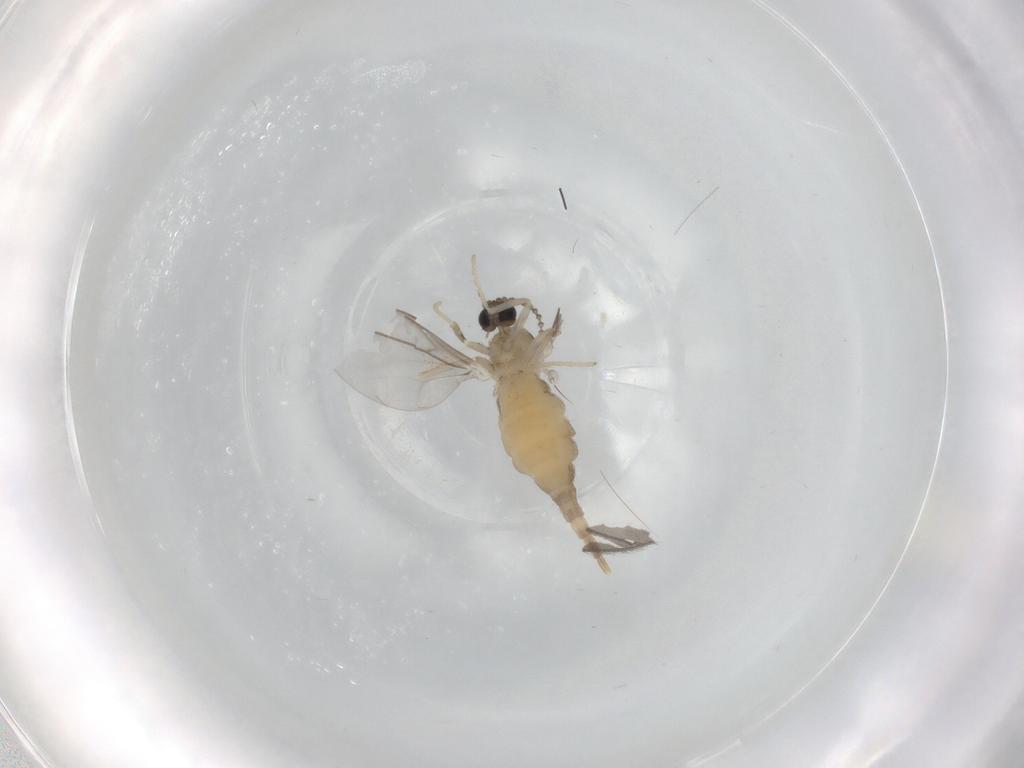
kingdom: Animalia
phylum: Arthropoda
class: Insecta
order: Diptera
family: Cecidomyiidae
